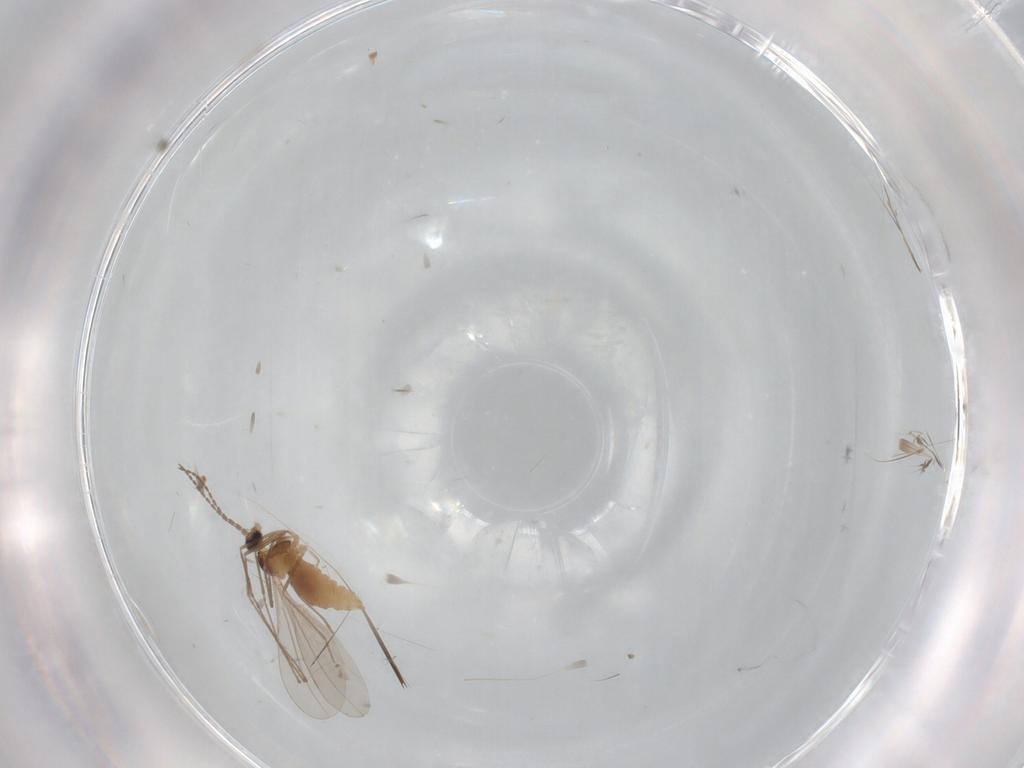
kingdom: Animalia
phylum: Arthropoda
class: Insecta
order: Diptera
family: Cecidomyiidae
